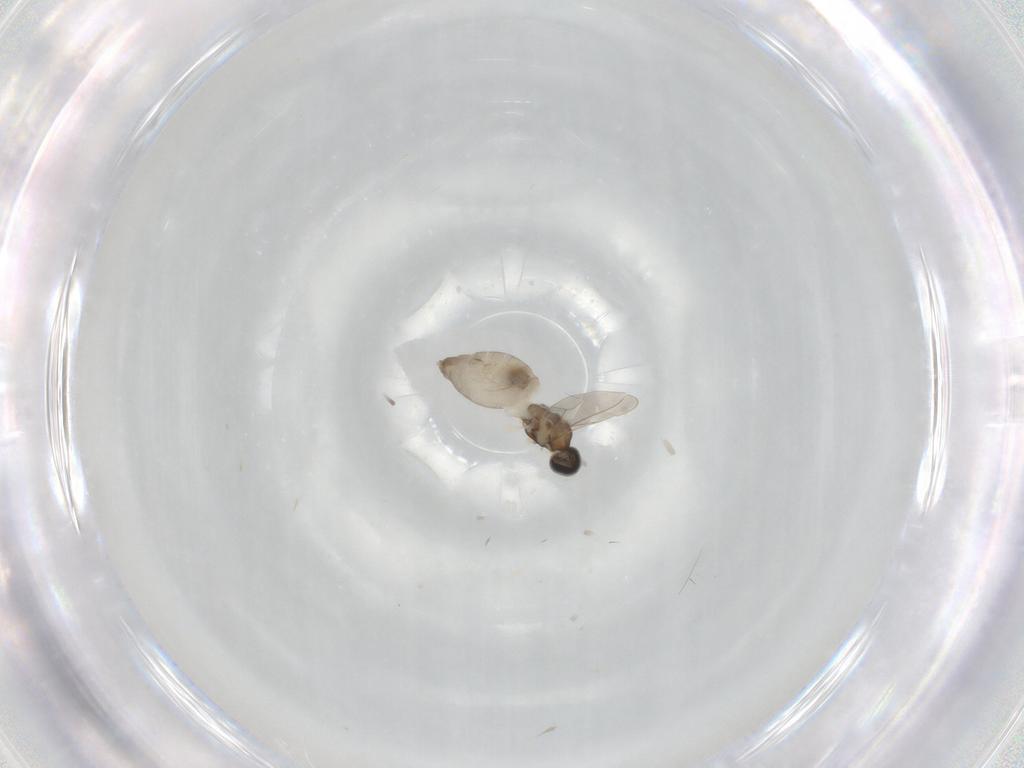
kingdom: Animalia
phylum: Arthropoda
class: Insecta
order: Diptera
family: Cecidomyiidae
